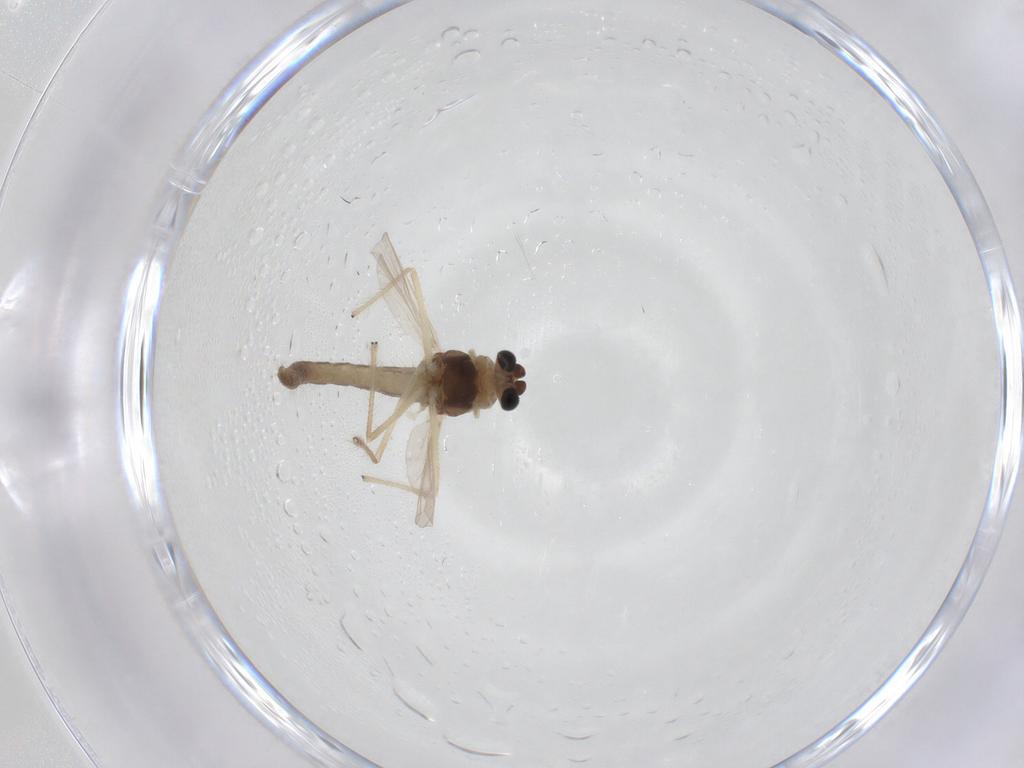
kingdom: Animalia
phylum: Arthropoda
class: Insecta
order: Diptera
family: Chironomidae
